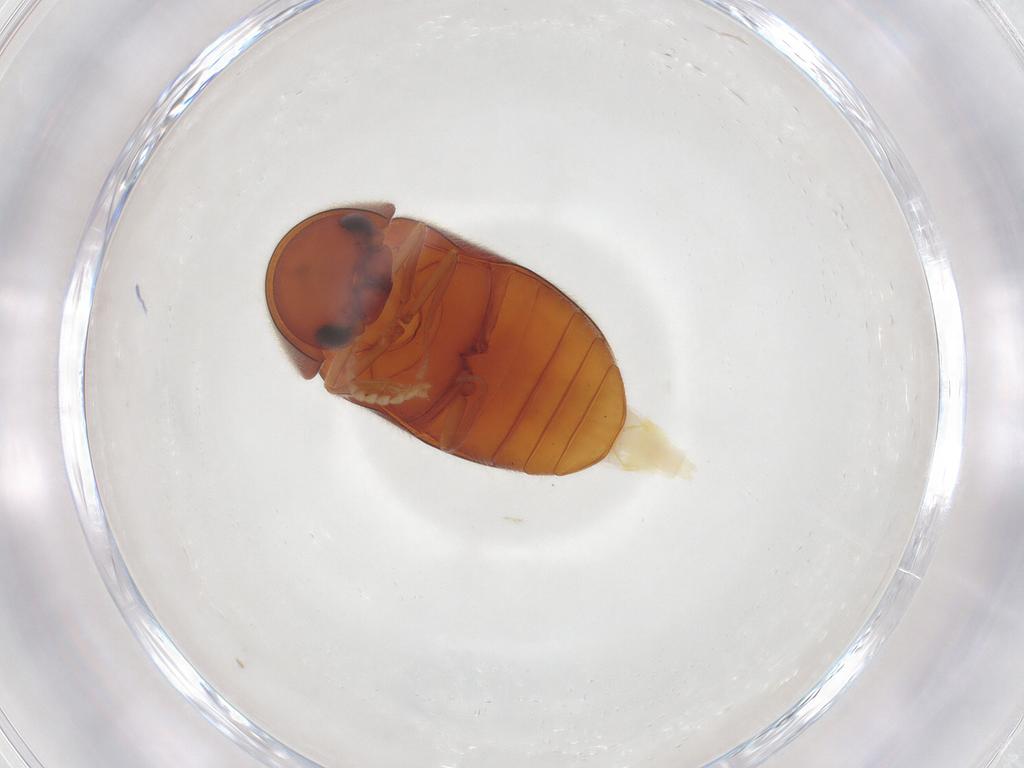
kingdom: Animalia
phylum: Arthropoda
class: Insecta
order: Coleoptera
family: Ptinidae
